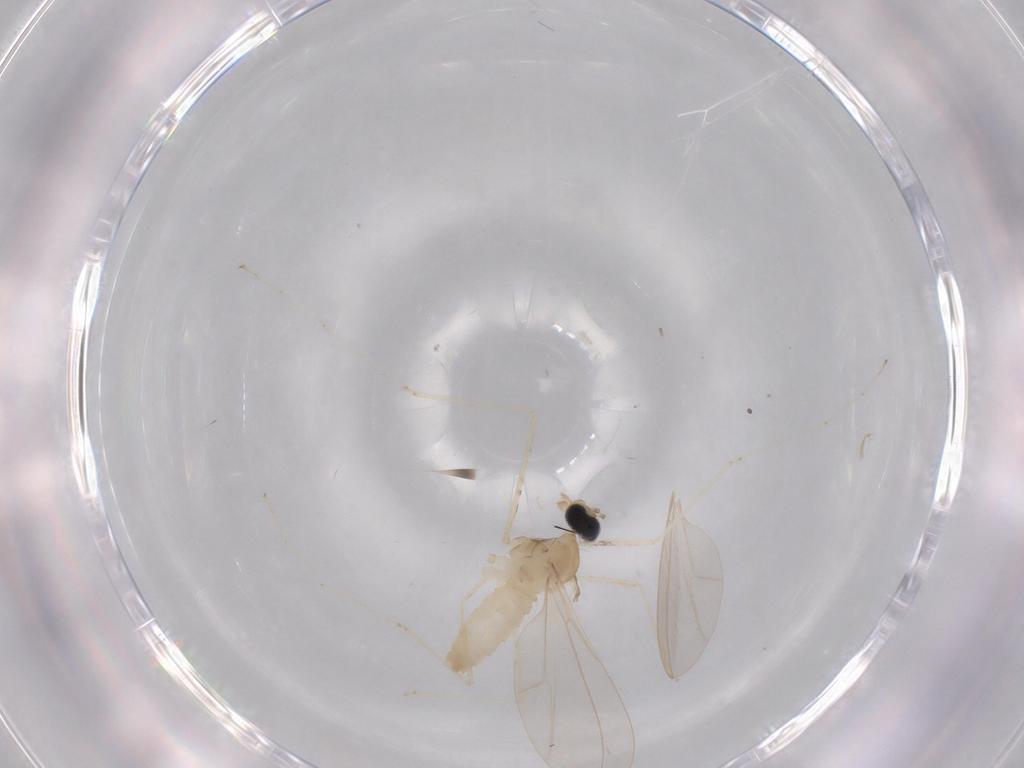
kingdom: Animalia
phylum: Arthropoda
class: Insecta
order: Diptera
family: Cecidomyiidae
